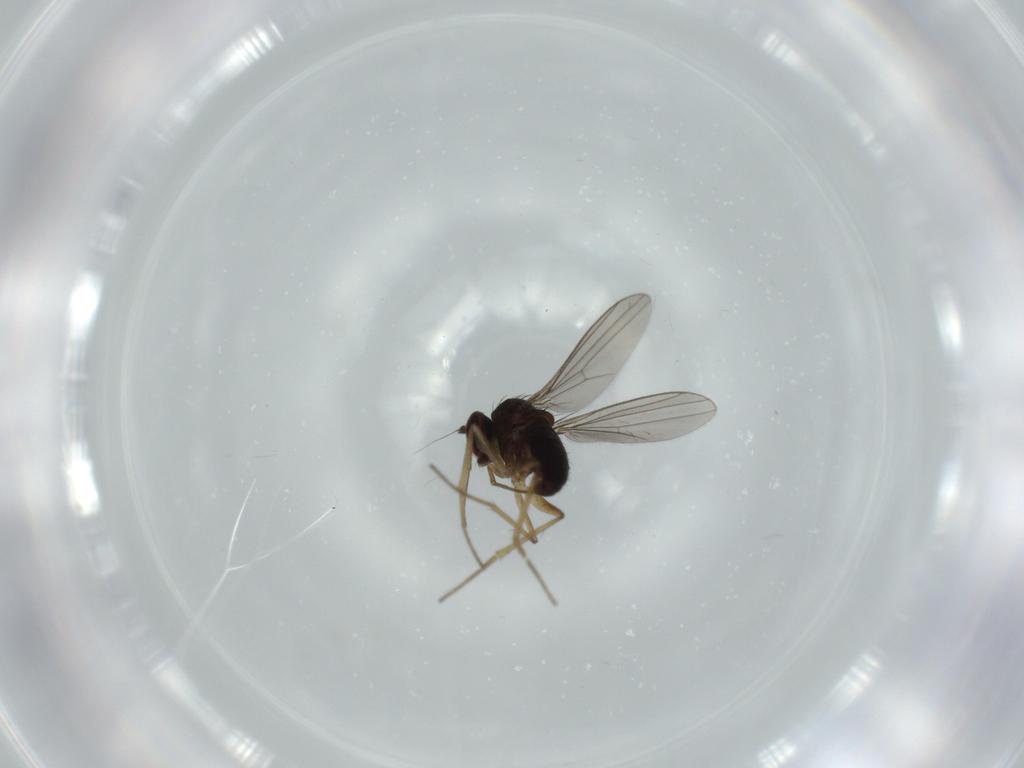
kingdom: Animalia
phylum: Arthropoda
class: Insecta
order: Diptera
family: Dolichopodidae
